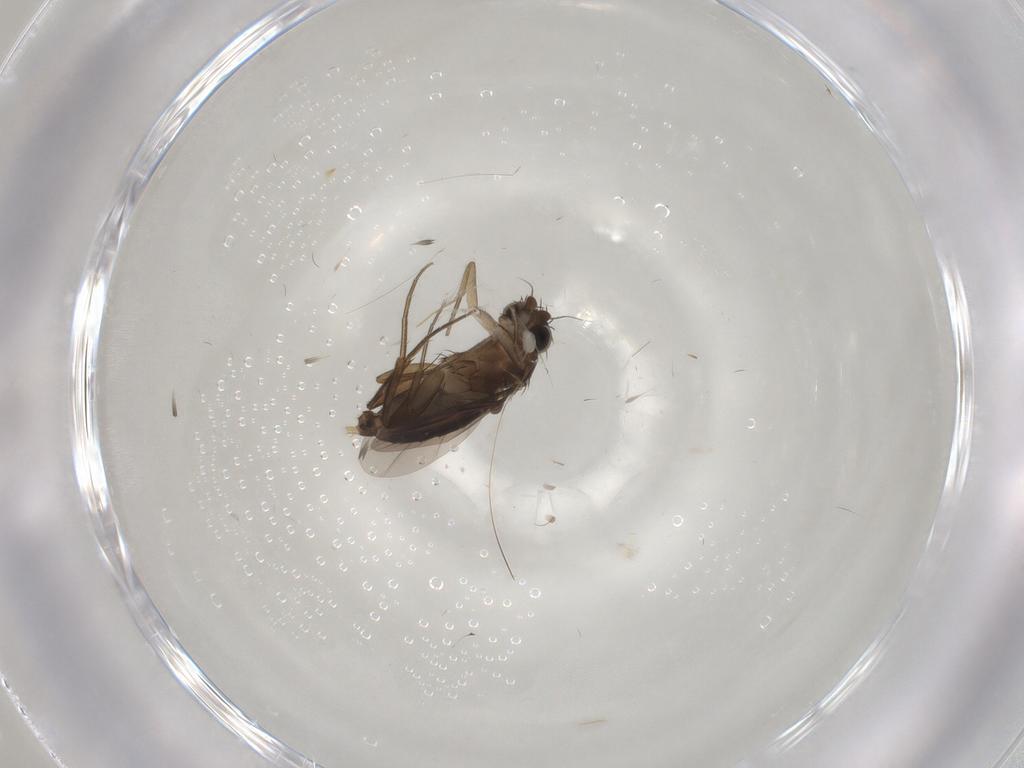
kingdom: Animalia
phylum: Arthropoda
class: Insecta
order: Diptera
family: Phoridae
